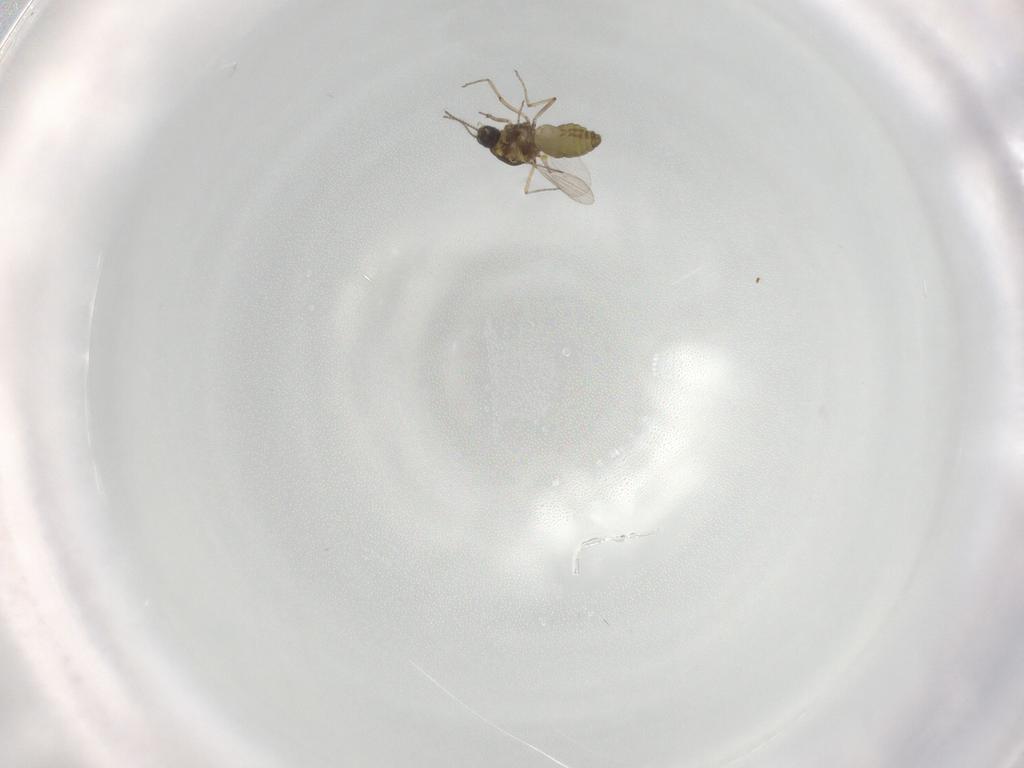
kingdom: Animalia
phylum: Arthropoda
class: Insecta
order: Diptera
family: Ceratopogonidae
